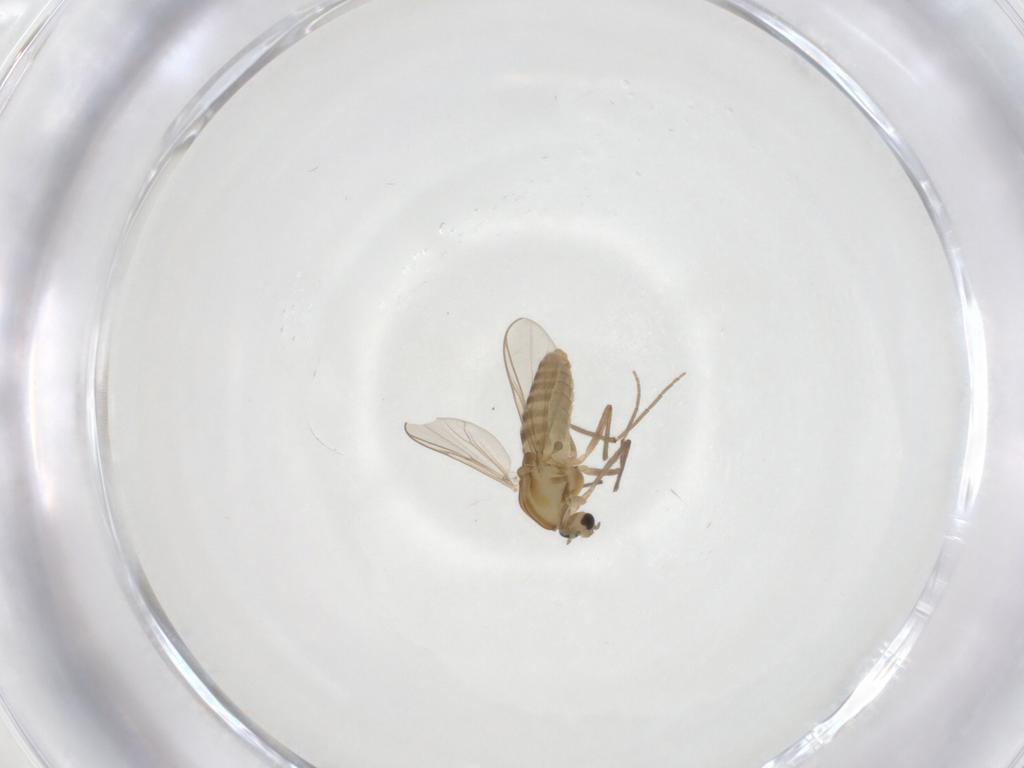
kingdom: Animalia
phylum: Arthropoda
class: Insecta
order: Diptera
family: Chironomidae
